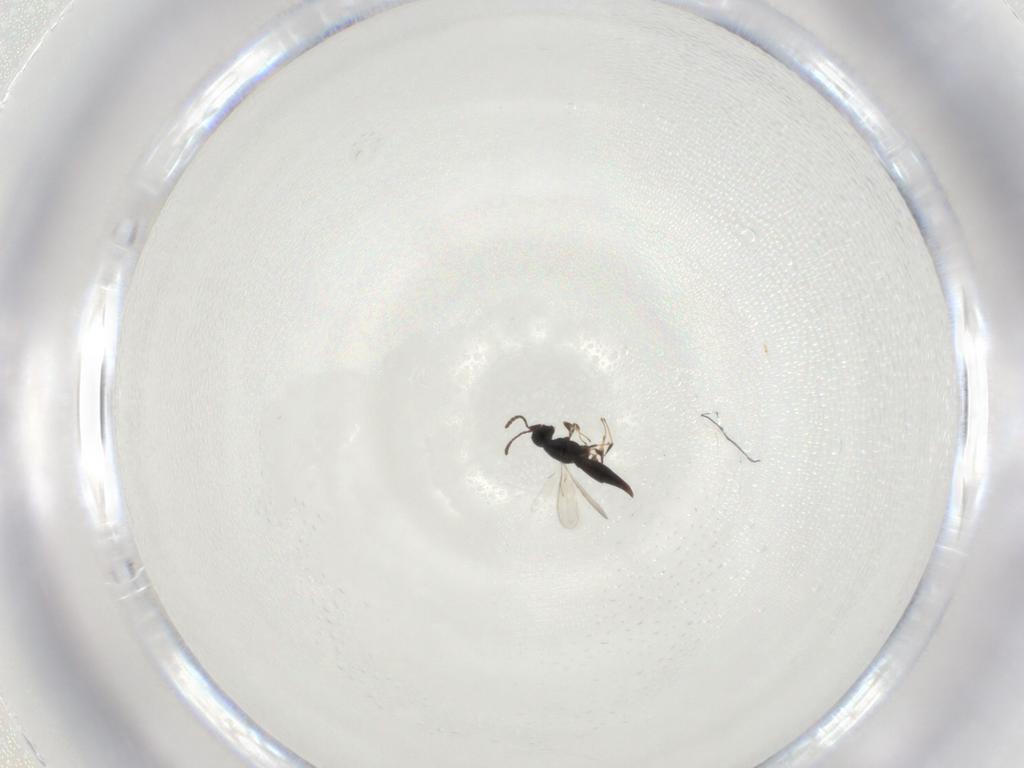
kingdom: Animalia
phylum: Arthropoda
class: Insecta
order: Hymenoptera
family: Scelionidae
